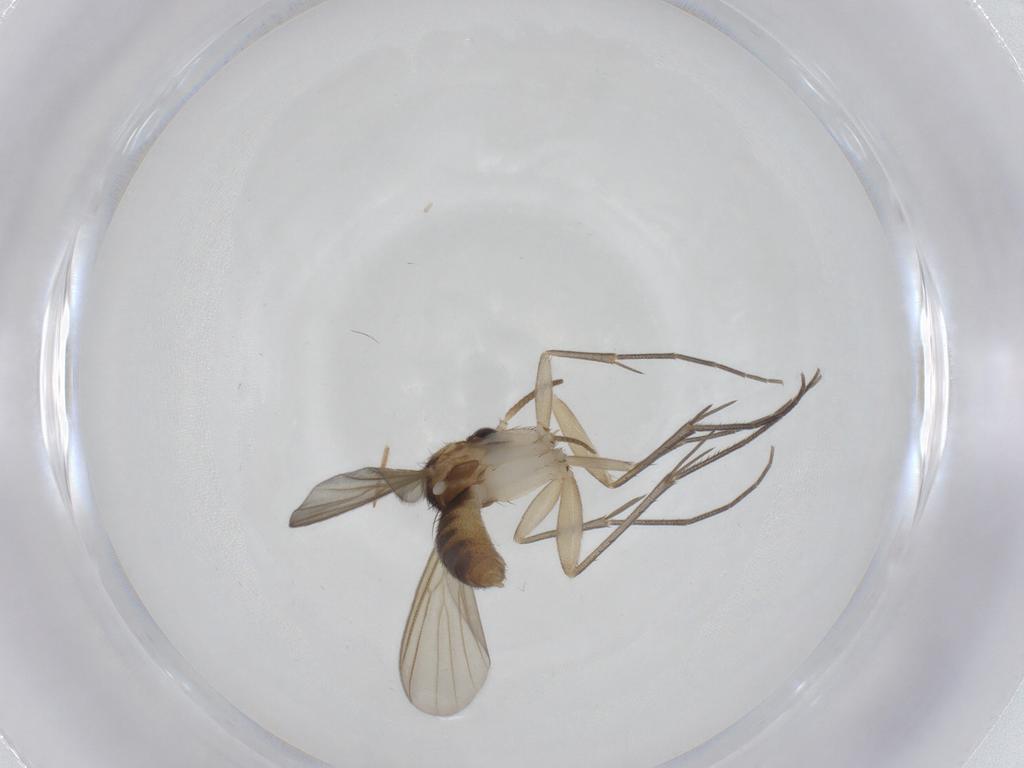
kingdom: Animalia
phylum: Arthropoda
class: Insecta
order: Diptera
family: Mycetophilidae
